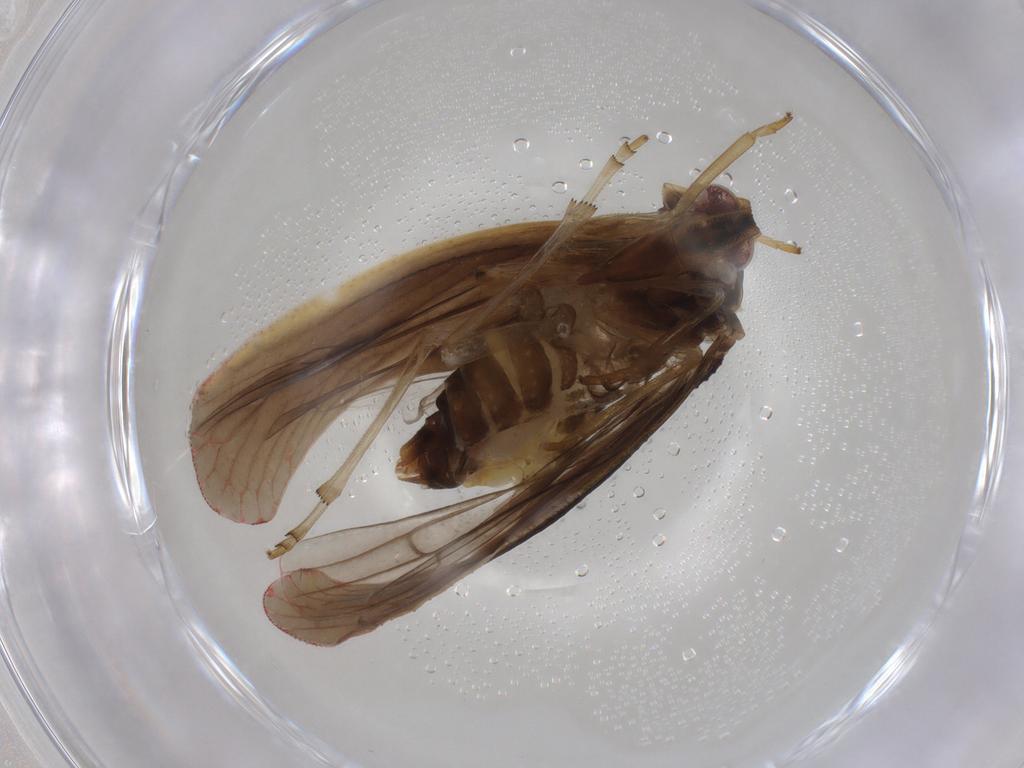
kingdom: Animalia
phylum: Arthropoda
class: Insecta
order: Hemiptera
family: Derbidae
